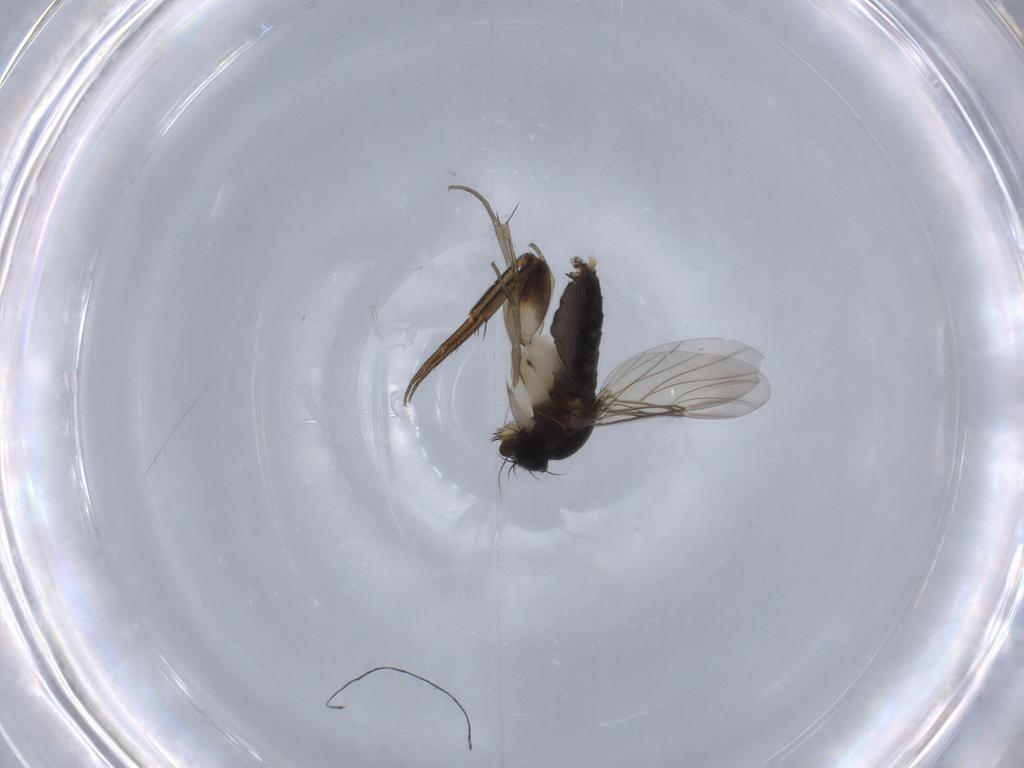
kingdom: Animalia
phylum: Arthropoda
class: Insecta
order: Diptera
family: Phoridae
